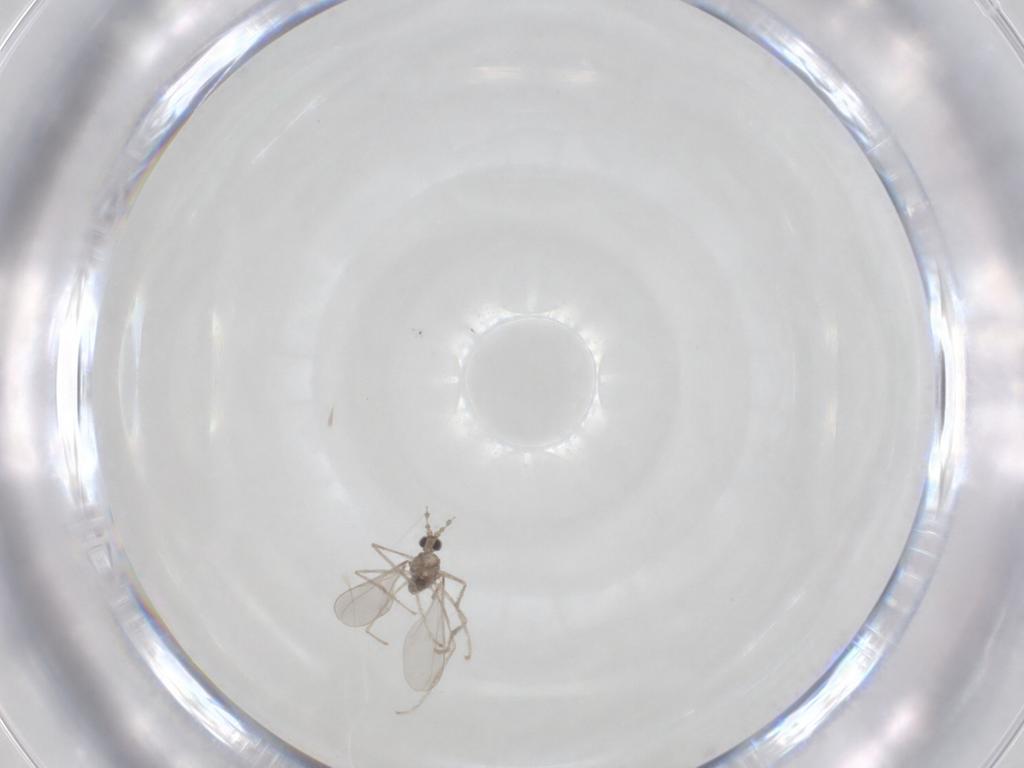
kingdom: Animalia
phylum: Arthropoda
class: Insecta
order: Diptera
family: Cecidomyiidae
